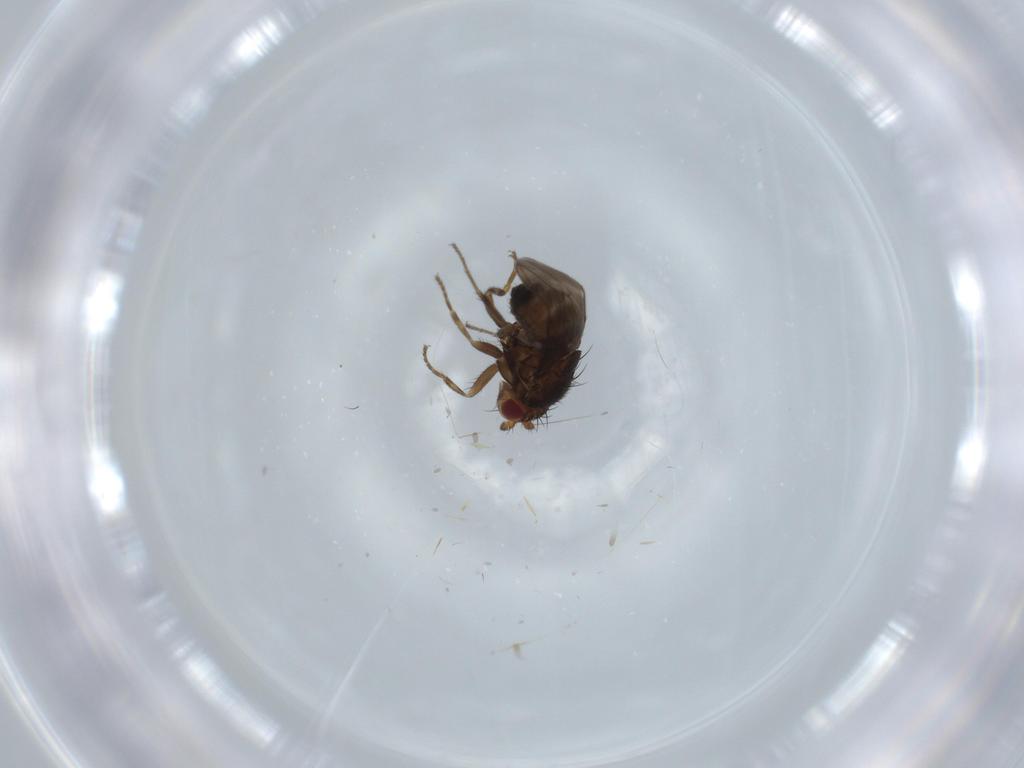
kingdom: Animalia
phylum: Arthropoda
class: Insecta
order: Diptera
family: Sphaeroceridae
